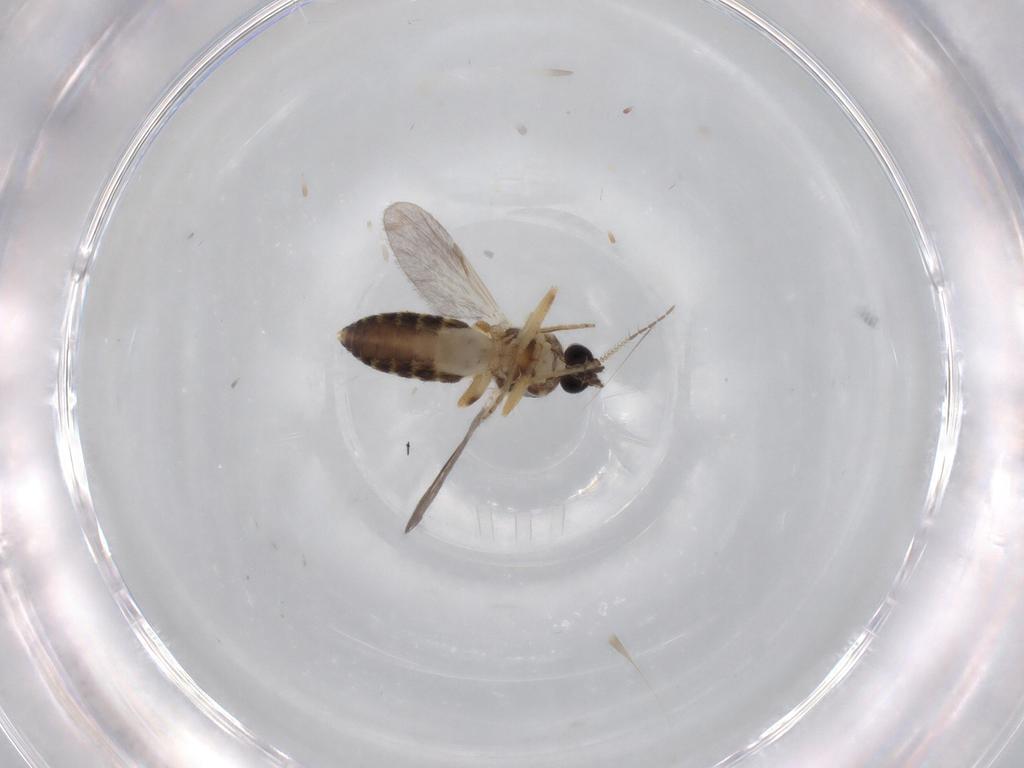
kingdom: Animalia
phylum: Arthropoda
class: Insecta
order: Diptera
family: Ceratopogonidae
